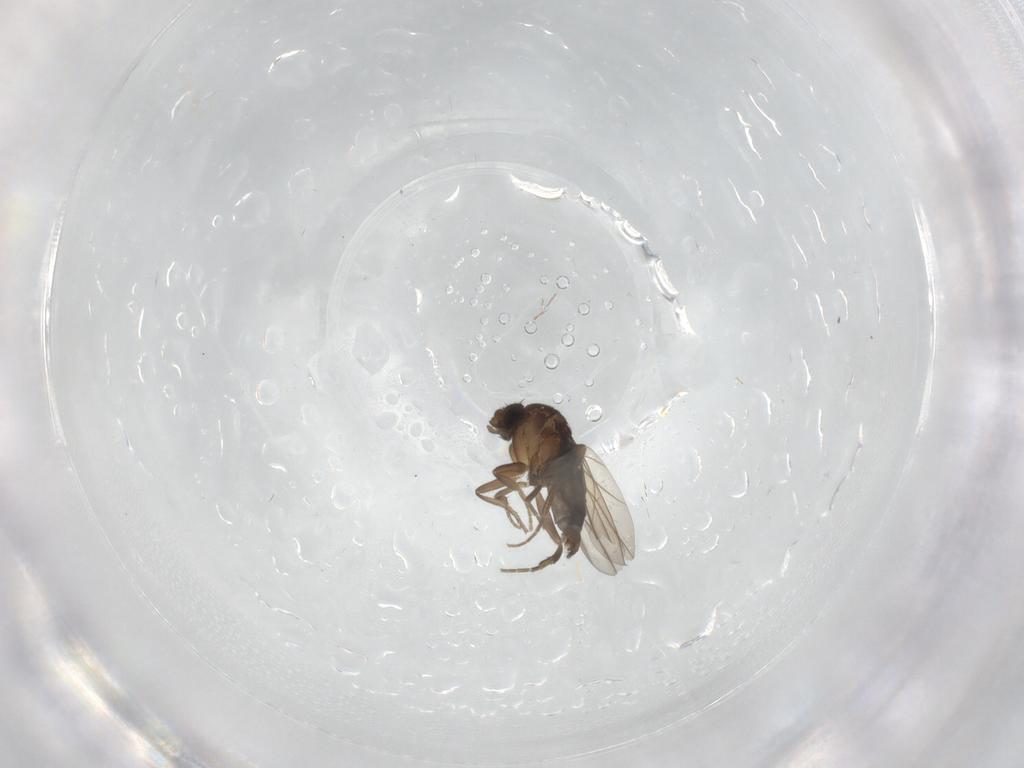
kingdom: Animalia
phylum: Arthropoda
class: Insecta
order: Diptera
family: Phoridae
